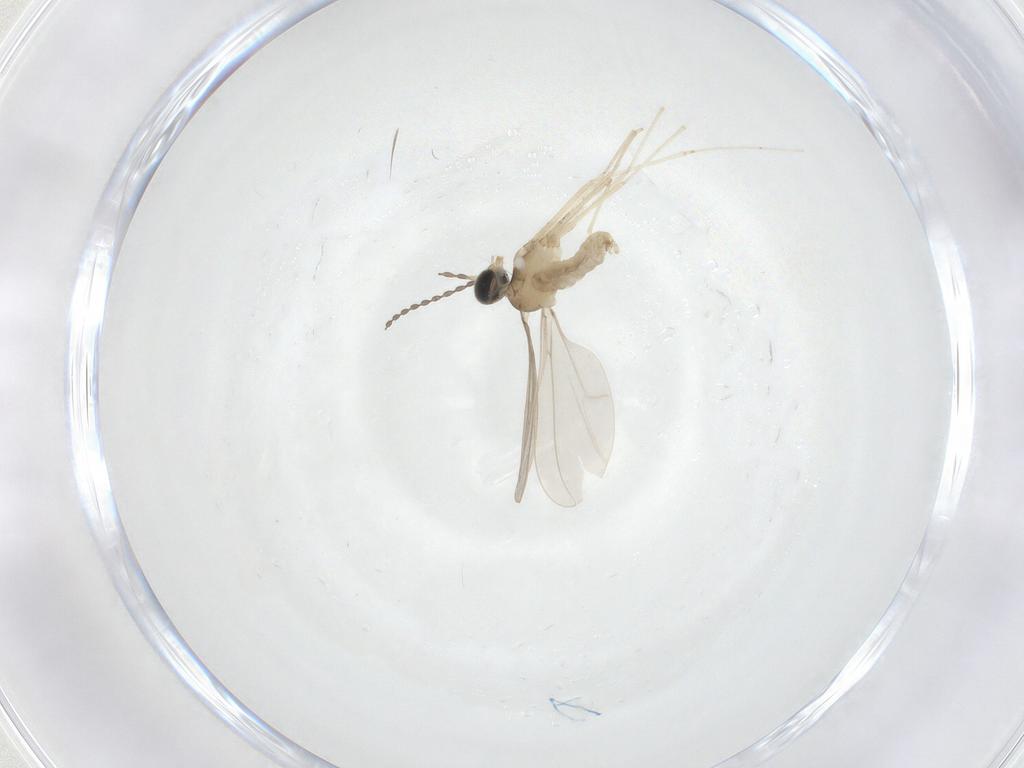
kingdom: Animalia
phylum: Arthropoda
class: Insecta
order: Diptera
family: Cecidomyiidae
